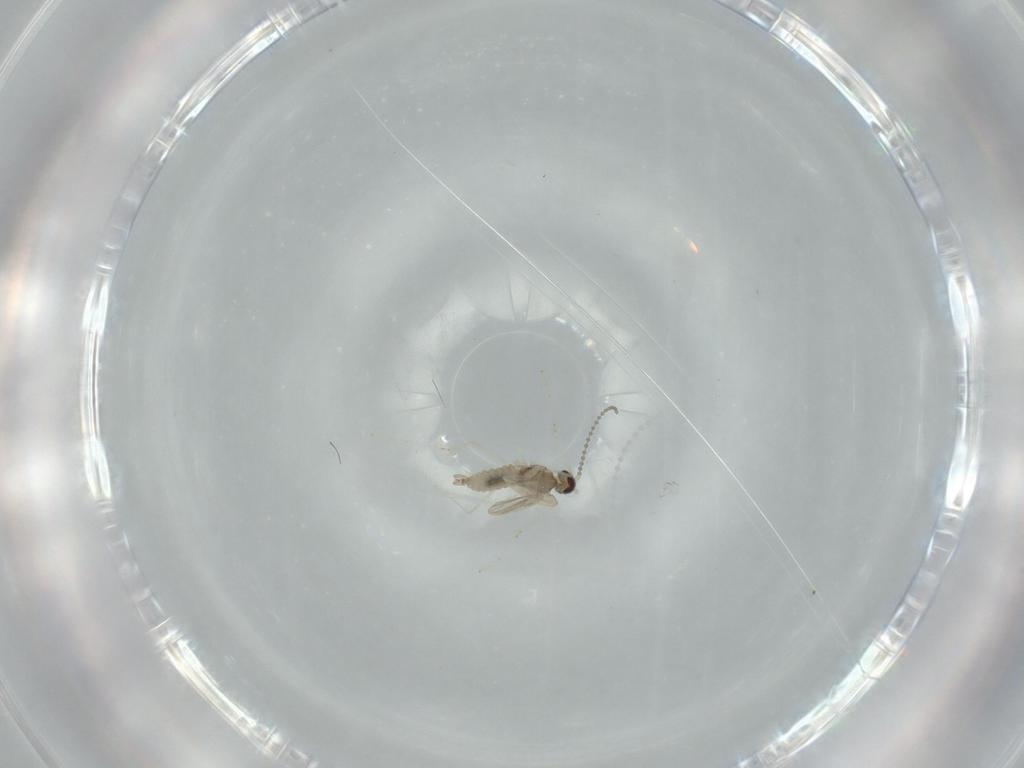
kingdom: Animalia
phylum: Arthropoda
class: Insecta
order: Diptera
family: Cecidomyiidae
